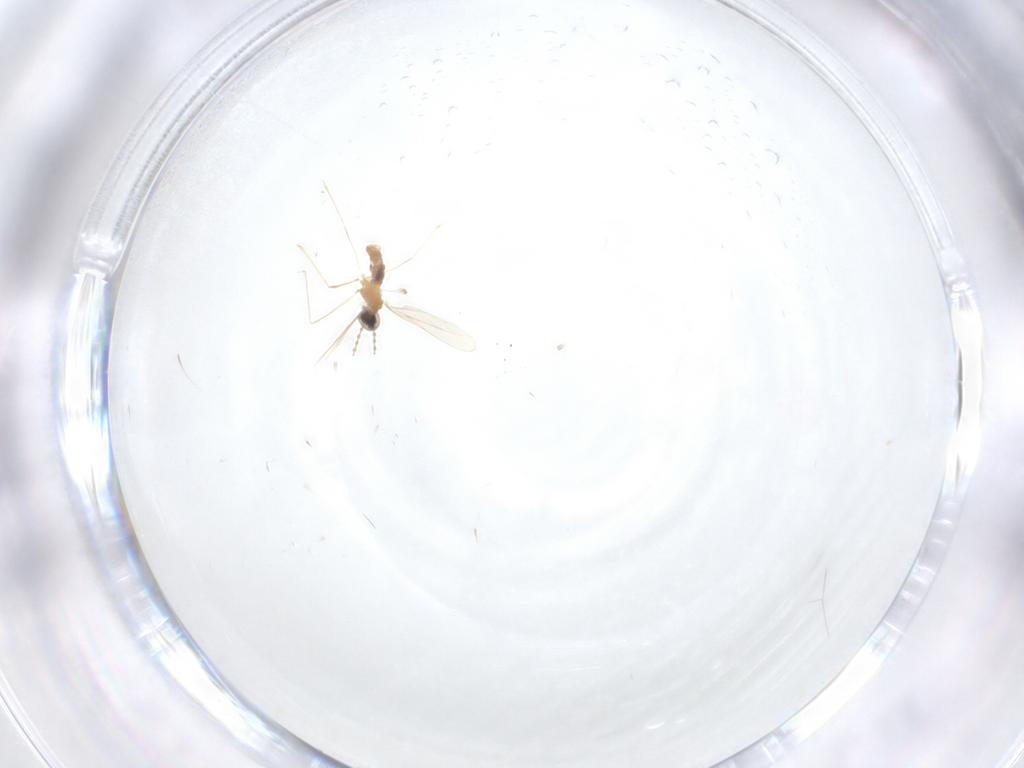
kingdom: Animalia
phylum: Arthropoda
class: Insecta
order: Diptera
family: Cecidomyiidae
